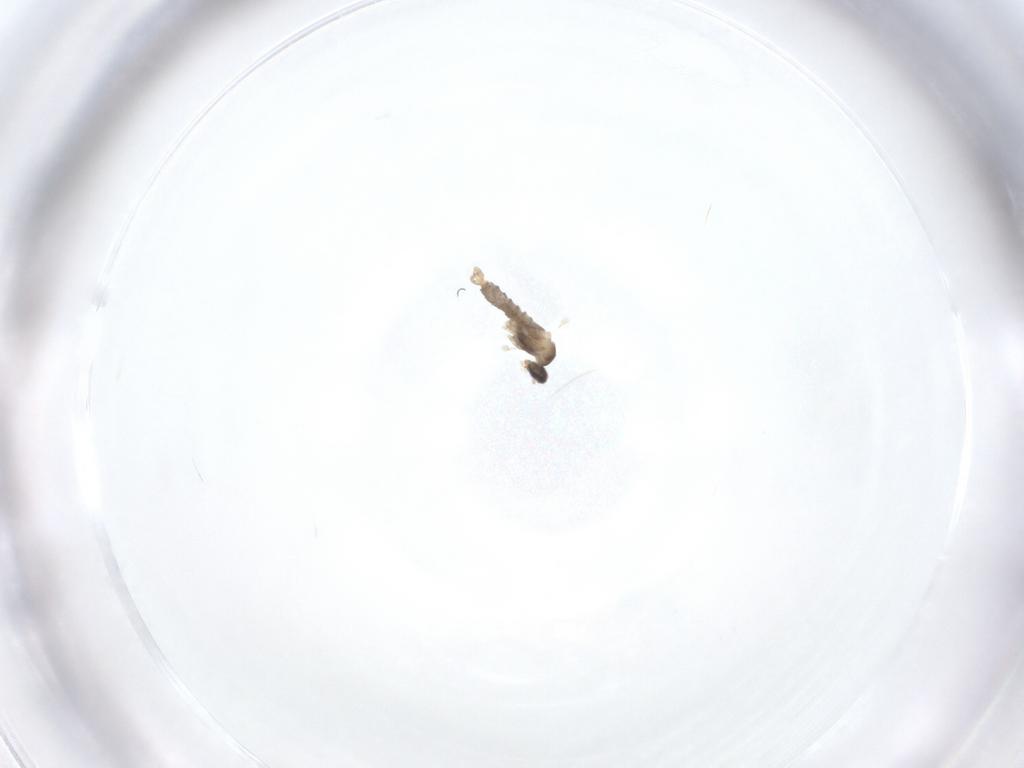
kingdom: Animalia
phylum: Arthropoda
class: Insecta
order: Diptera
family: Cecidomyiidae
